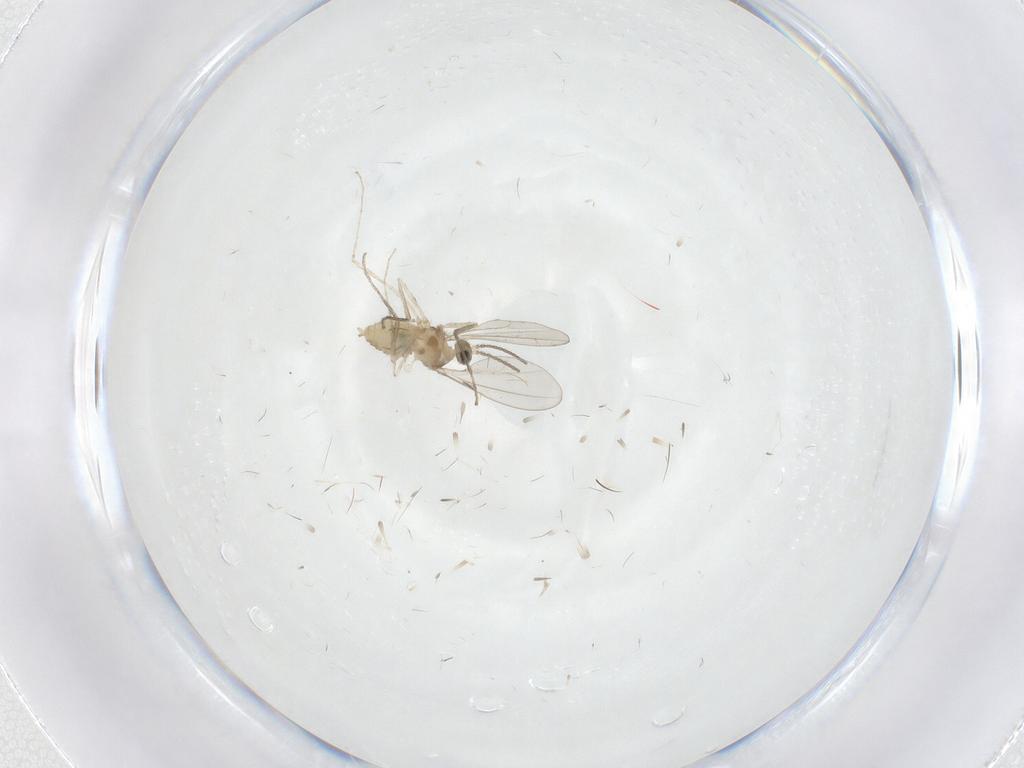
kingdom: Animalia
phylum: Arthropoda
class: Insecta
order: Diptera
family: Cecidomyiidae
